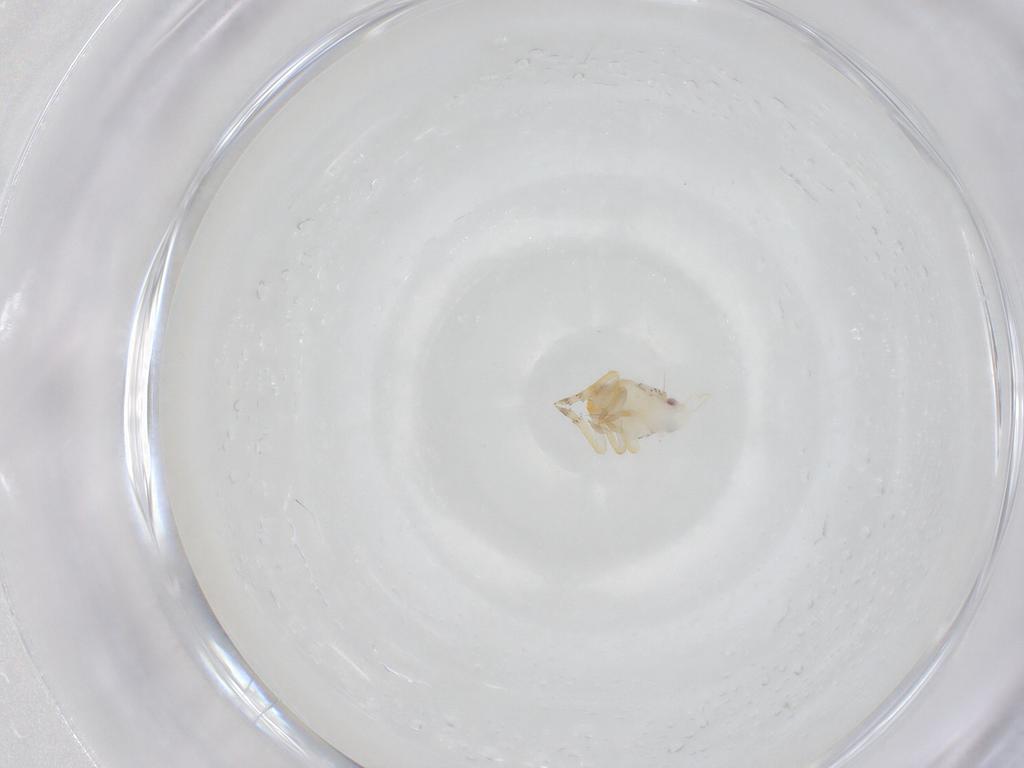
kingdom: Animalia
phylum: Arthropoda
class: Insecta
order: Hemiptera
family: Flatidae
